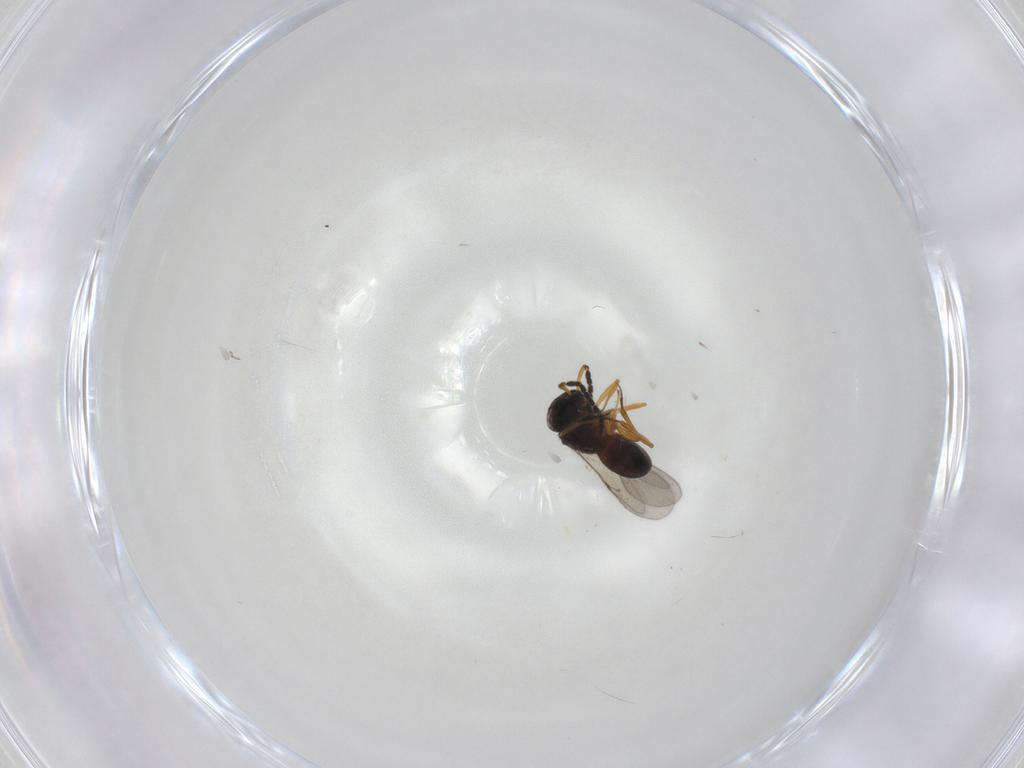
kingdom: Animalia
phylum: Arthropoda
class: Insecta
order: Hymenoptera
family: Scelionidae
